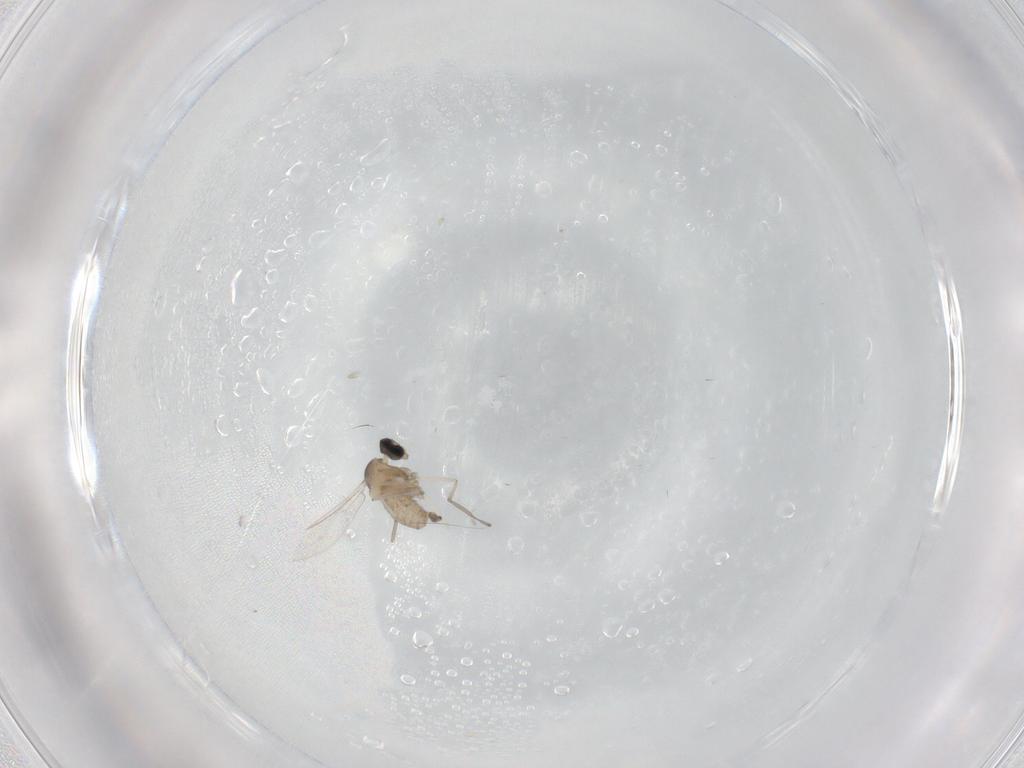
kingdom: Animalia
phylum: Arthropoda
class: Insecta
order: Diptera
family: Cecidomyiidae
